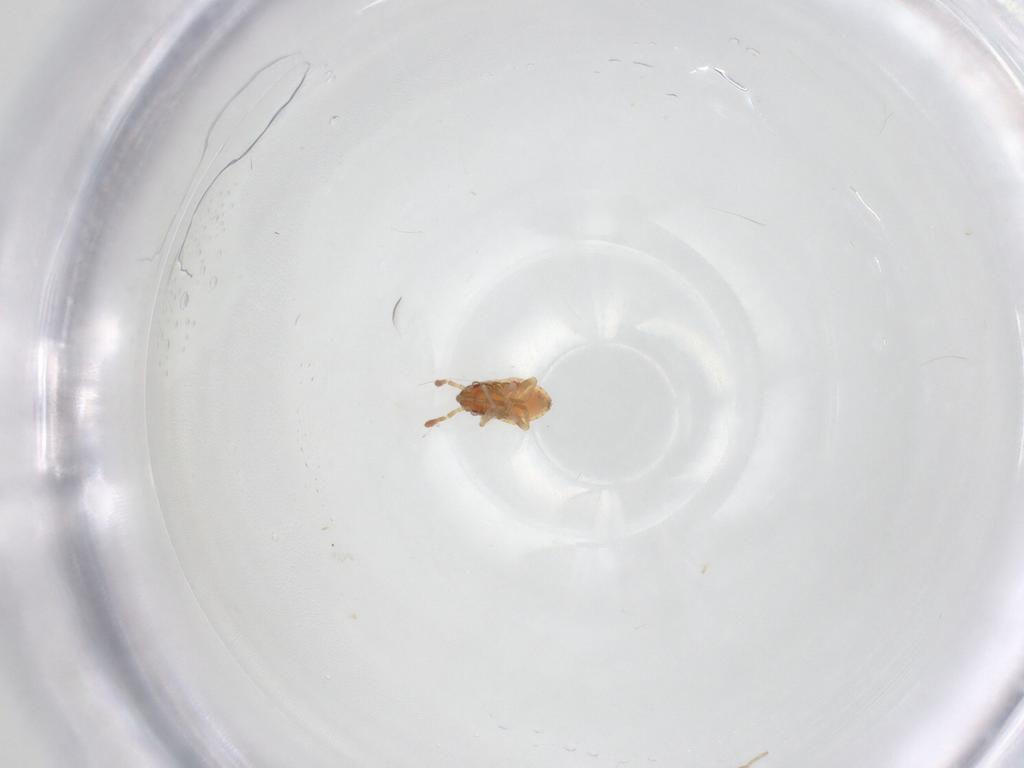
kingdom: Animalia
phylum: Arthropoda
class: Insecta
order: Hemiptera
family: Lygaeidae
